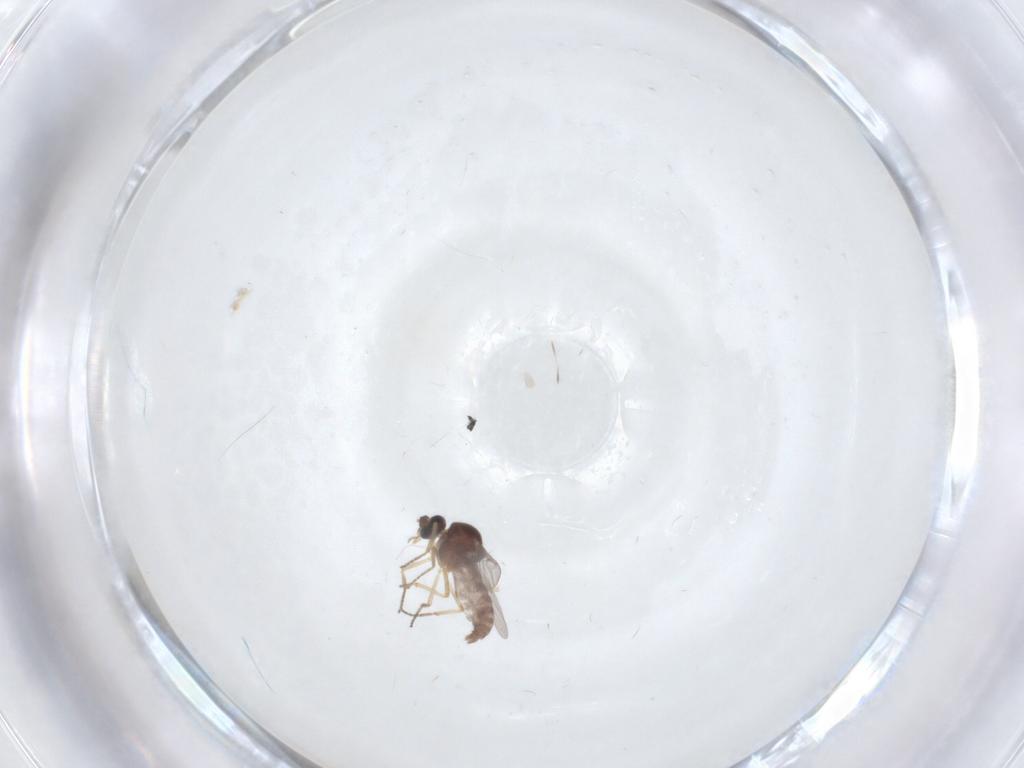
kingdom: Animalia
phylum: Arthropoda
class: Insecta
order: Diptera
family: Ceratopogonidae
